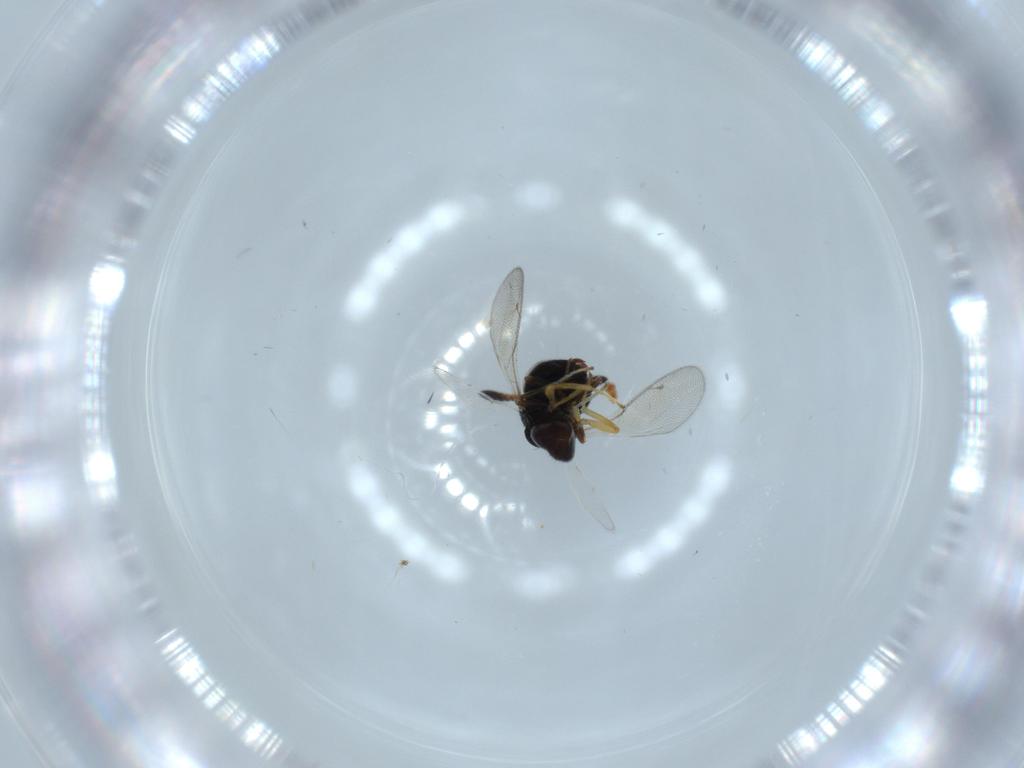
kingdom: Animalia
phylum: Arthropoda
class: Insecta
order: Hymenoptera
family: Pteromalidae
